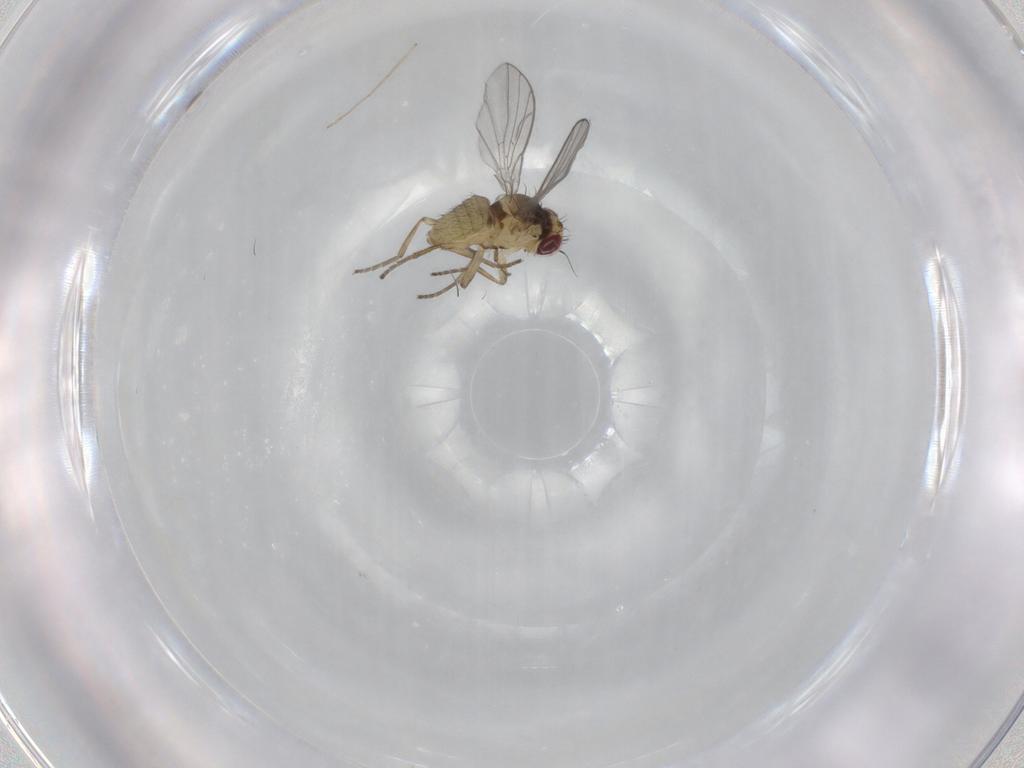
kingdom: Animalia
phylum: Arthropoda
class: Insecta
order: Diptera
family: Agromyzidae
